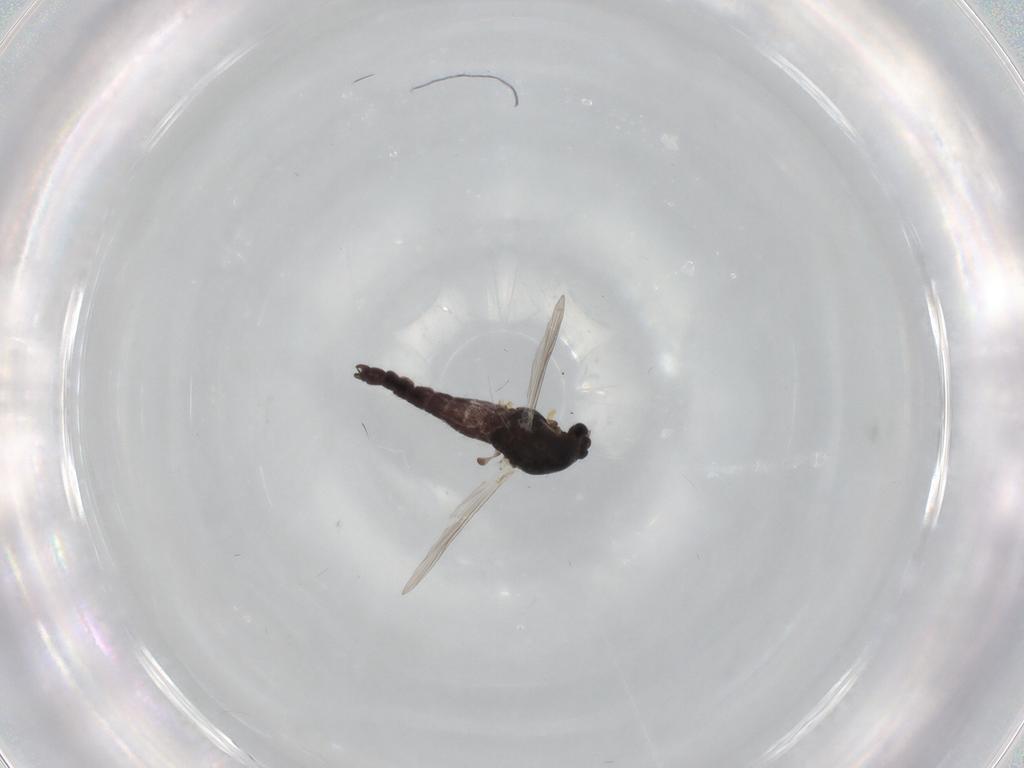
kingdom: Animalia
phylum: Arthropoda
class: Insecta
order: Diptera
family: Chironomidae
